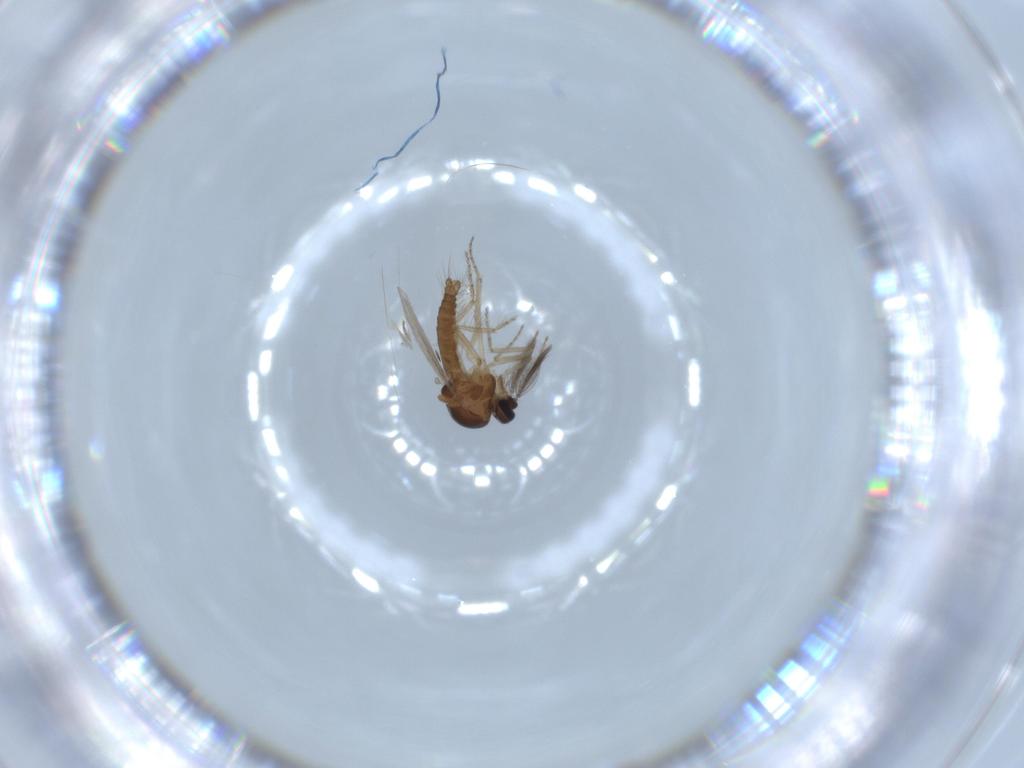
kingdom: Animalia
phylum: Arthropoda
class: Insecta
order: Diptera
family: Ceratopogonidae
